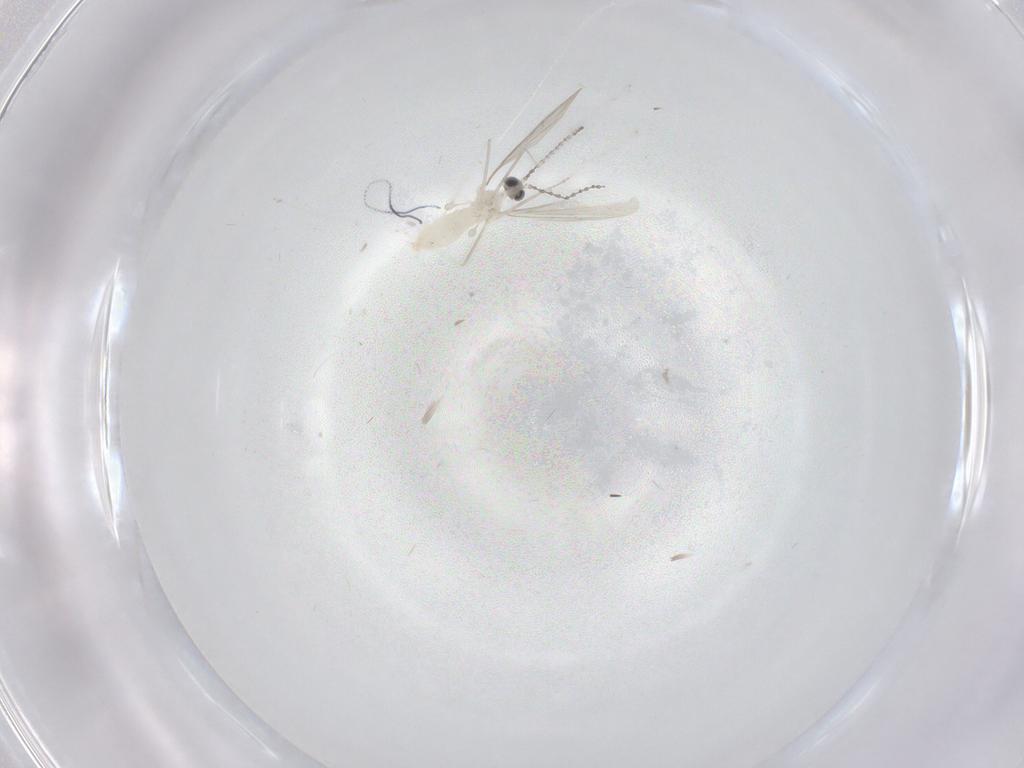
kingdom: Animalia
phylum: Arthropoda
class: Insecta
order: Diptera
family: Cecidomyiidae
